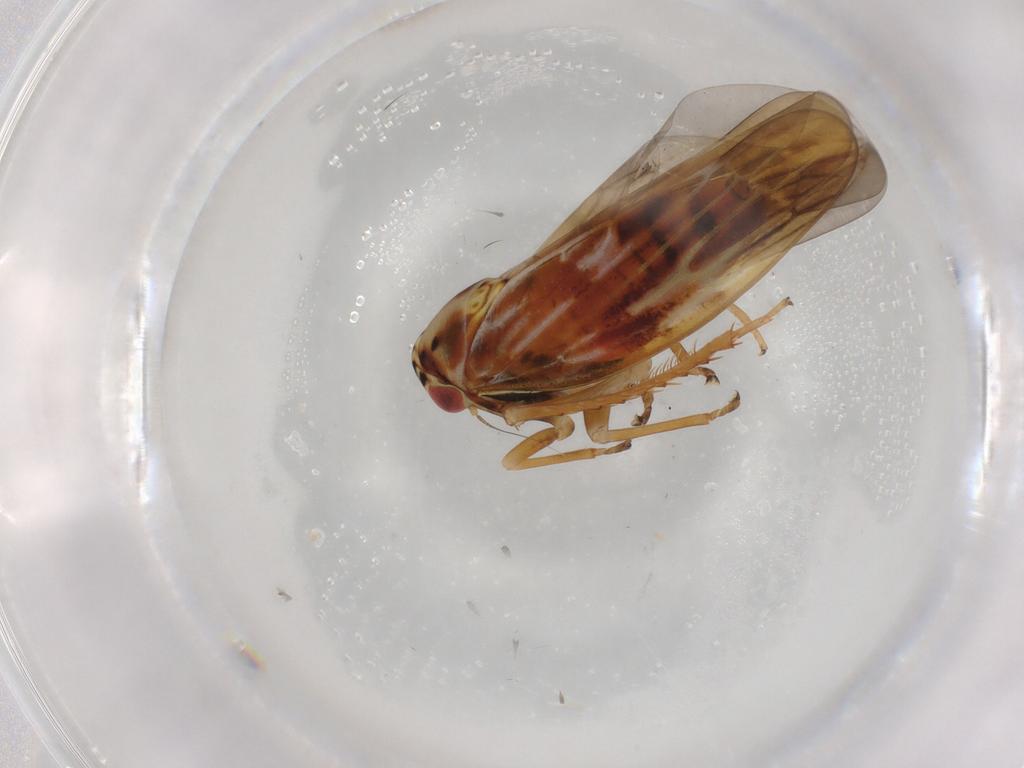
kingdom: Animalia
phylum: Arthropoda
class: Insecta
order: Hemiptera
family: Cicadellidae
